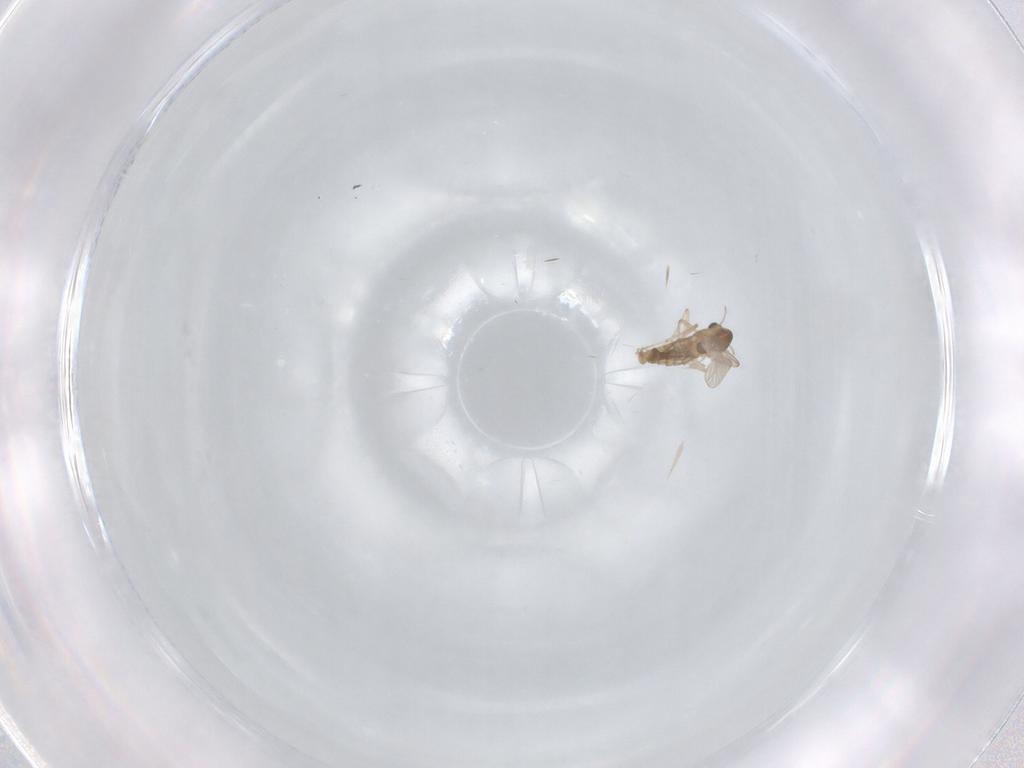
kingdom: Animalia
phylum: Arthropoda
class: Insecta
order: Diptera
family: Chironomidae
